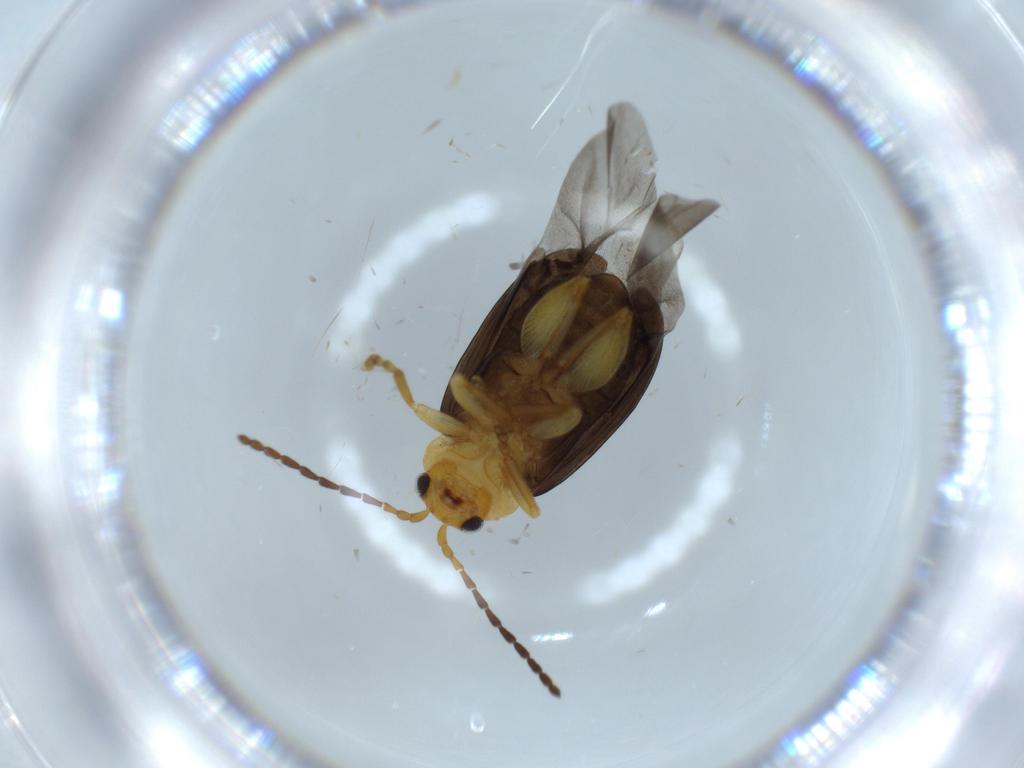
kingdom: Animalia
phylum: Arthropoda
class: Insecta
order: Coleoptera
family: Chrysomelidae
